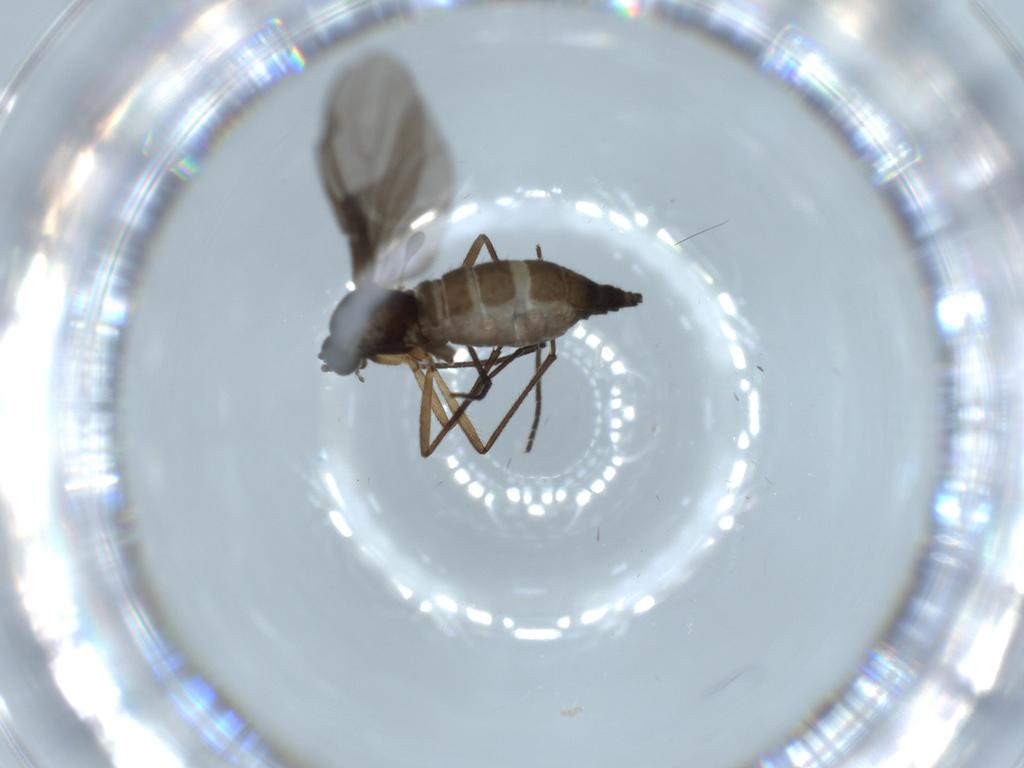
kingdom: Animalia
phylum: Arthropoda
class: Insecta
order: Diptera
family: Sciaridae
